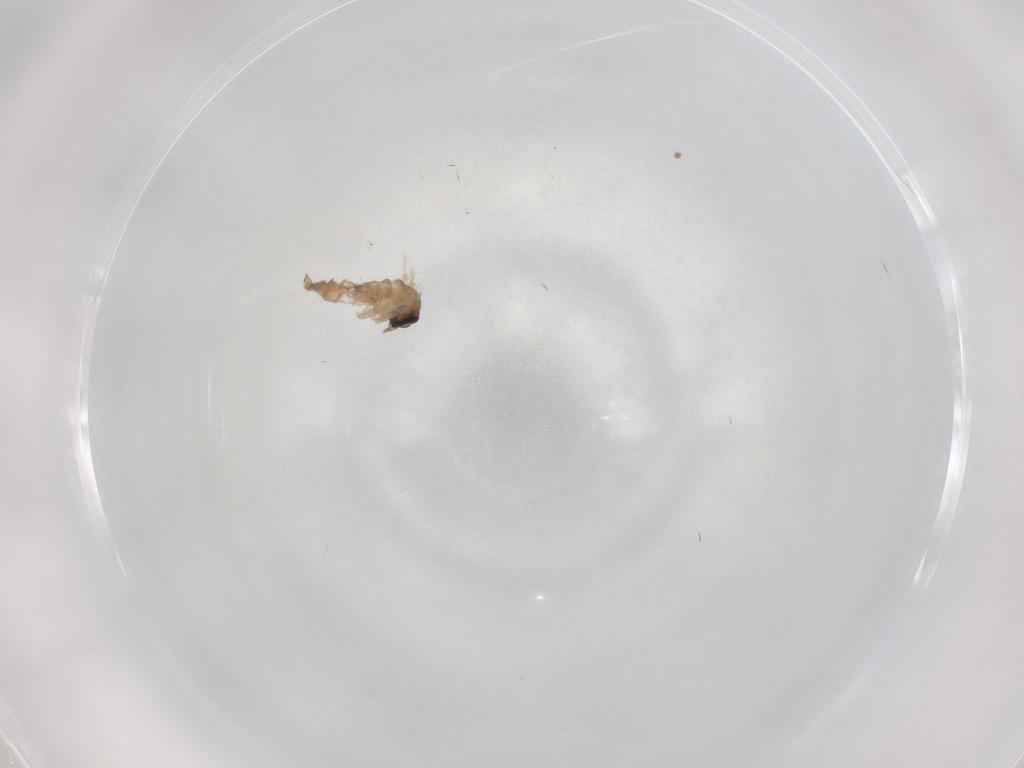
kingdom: Animalia
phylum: Arthropoda
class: Insecta
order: Diptera
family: Psychodidae
